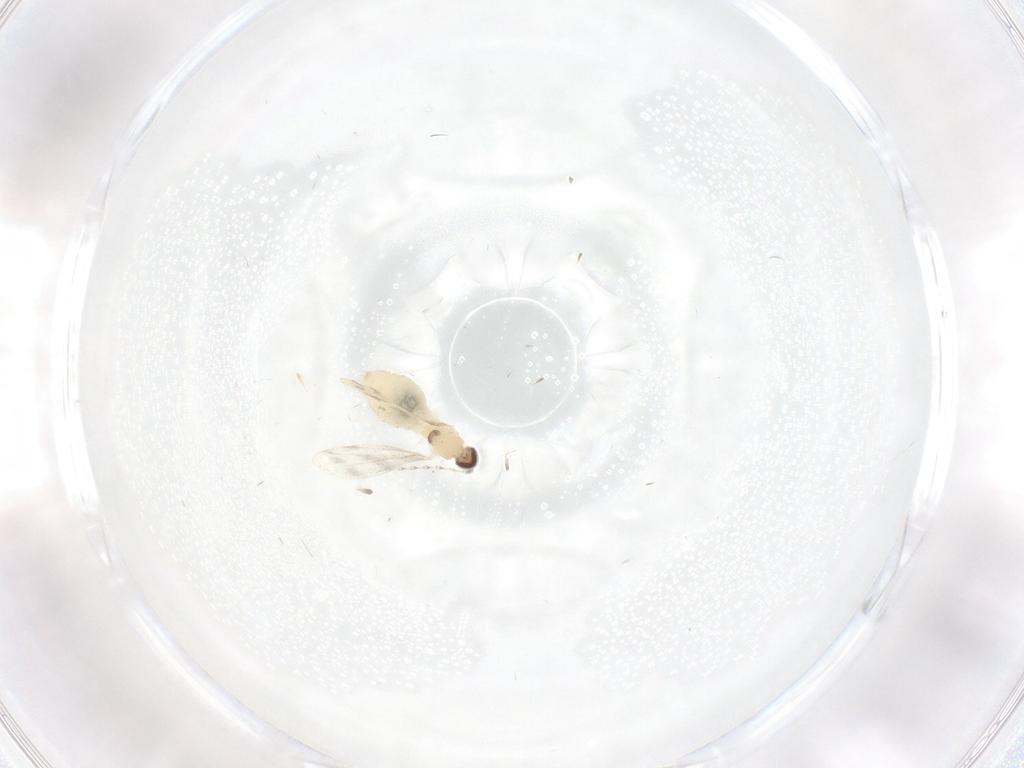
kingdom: Animalia
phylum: Arthropoda
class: Insecta
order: Diptera
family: Cecidomyiidae
